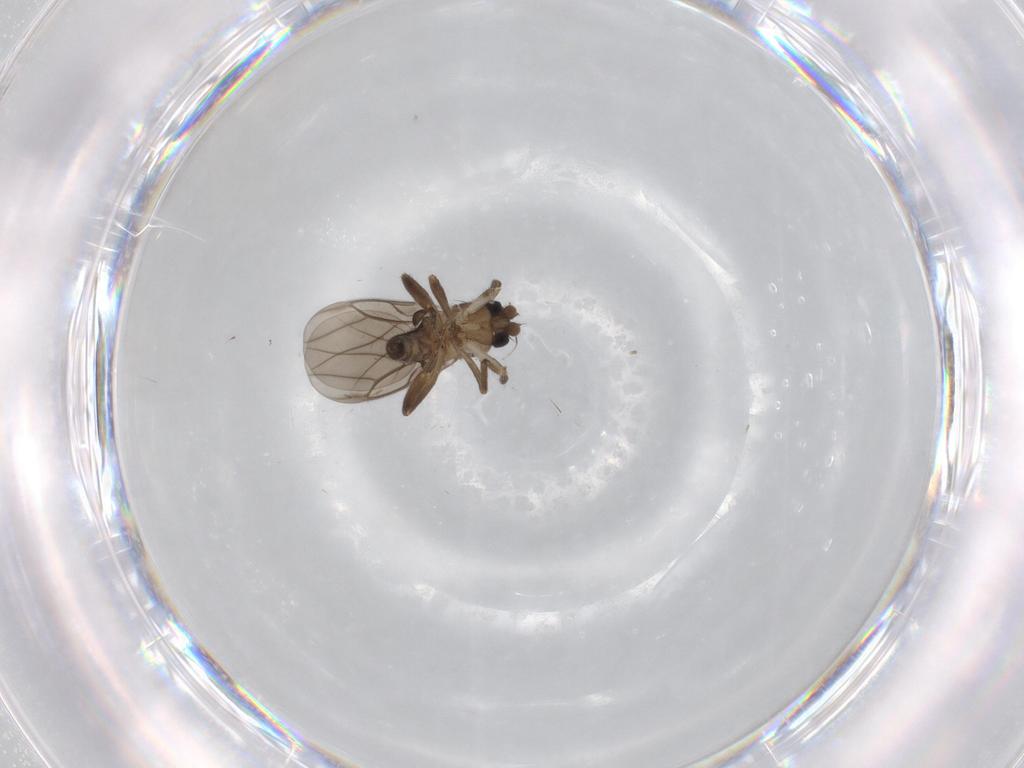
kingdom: Animalia
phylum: Arthropoda
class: Insecta
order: Diptera
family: Chironomidae
